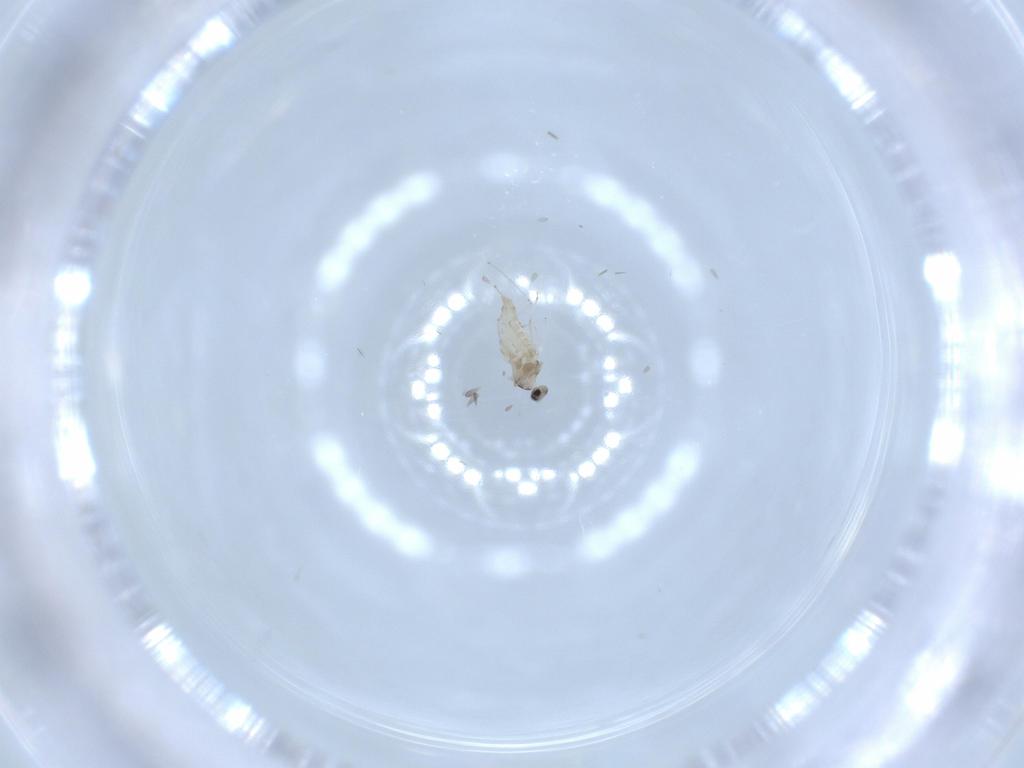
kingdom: Animalia
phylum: Arthropoda
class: Insecta
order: Diptera
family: Cecidomyiidae
